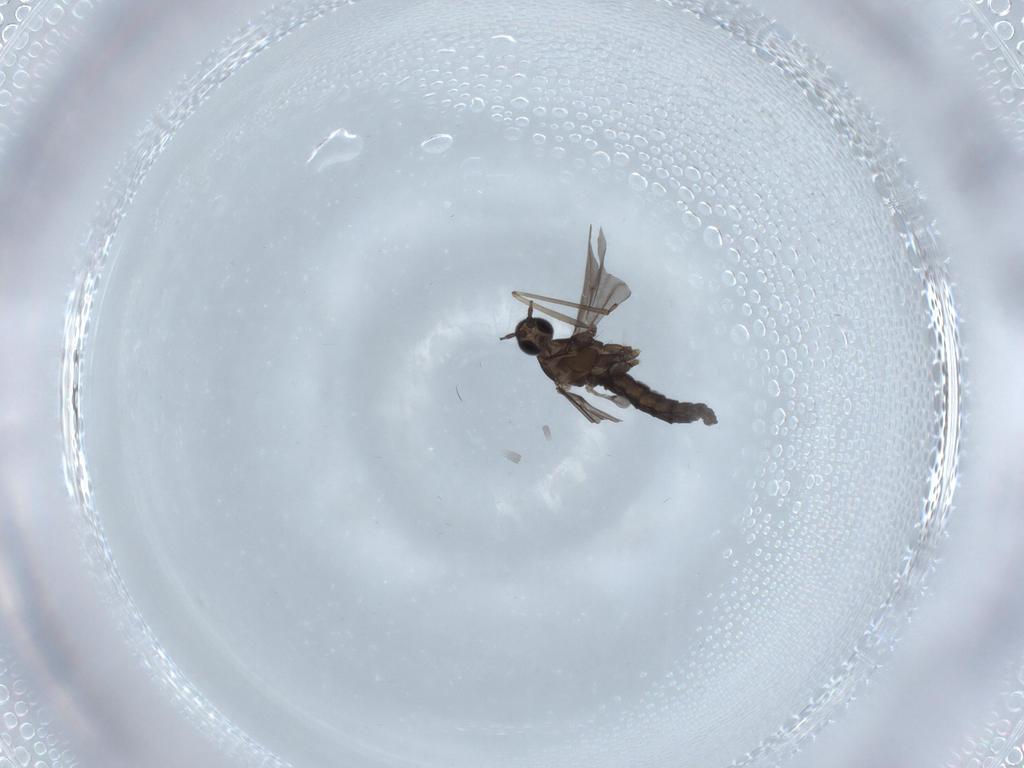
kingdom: Animalia
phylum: Arthropoda
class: Insecta
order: Diptera
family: Cecidomyiidae
